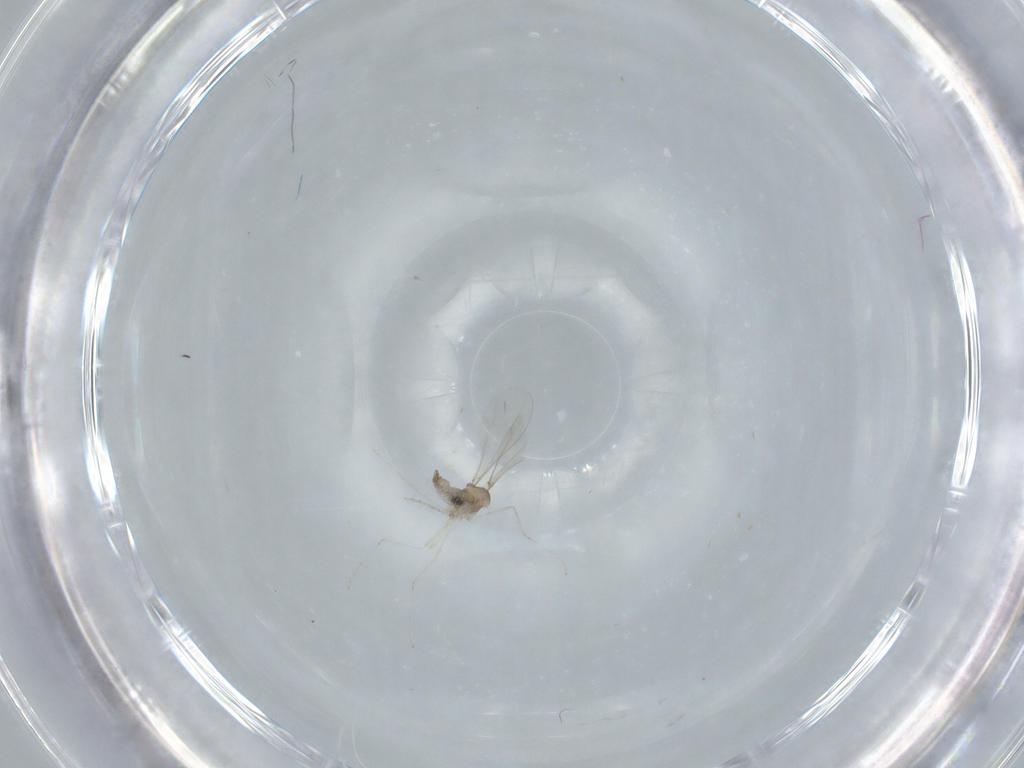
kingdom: Animalia
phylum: Arthropoda
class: Insecta
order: Diptera
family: Cecidomyiidae
